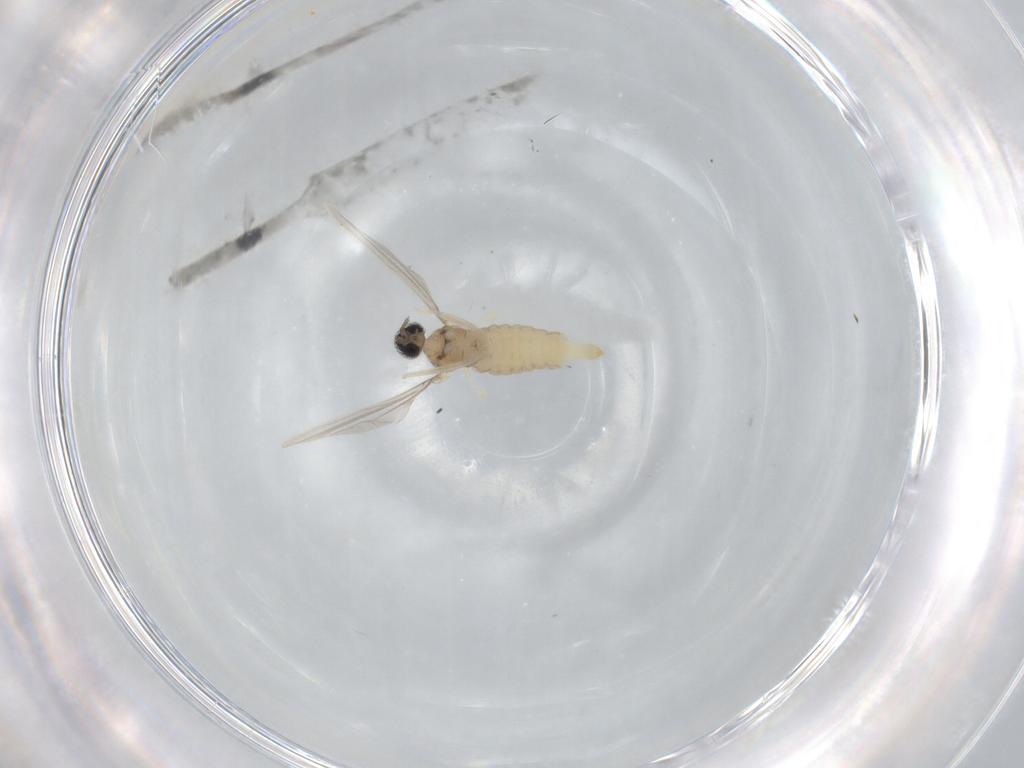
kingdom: Animalia
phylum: Arthropoda
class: Insecta
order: Diptera
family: Cecidomyiidae
